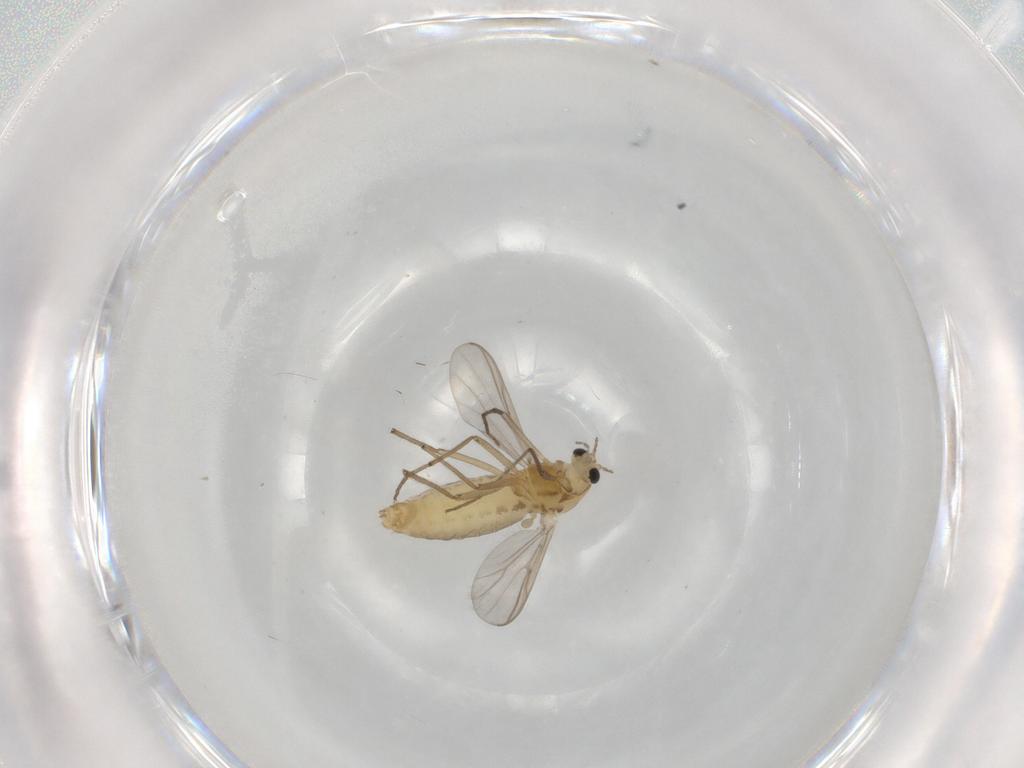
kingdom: Animalia
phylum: Arthropoda
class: Insecta
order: Diptera
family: Chironomidae
